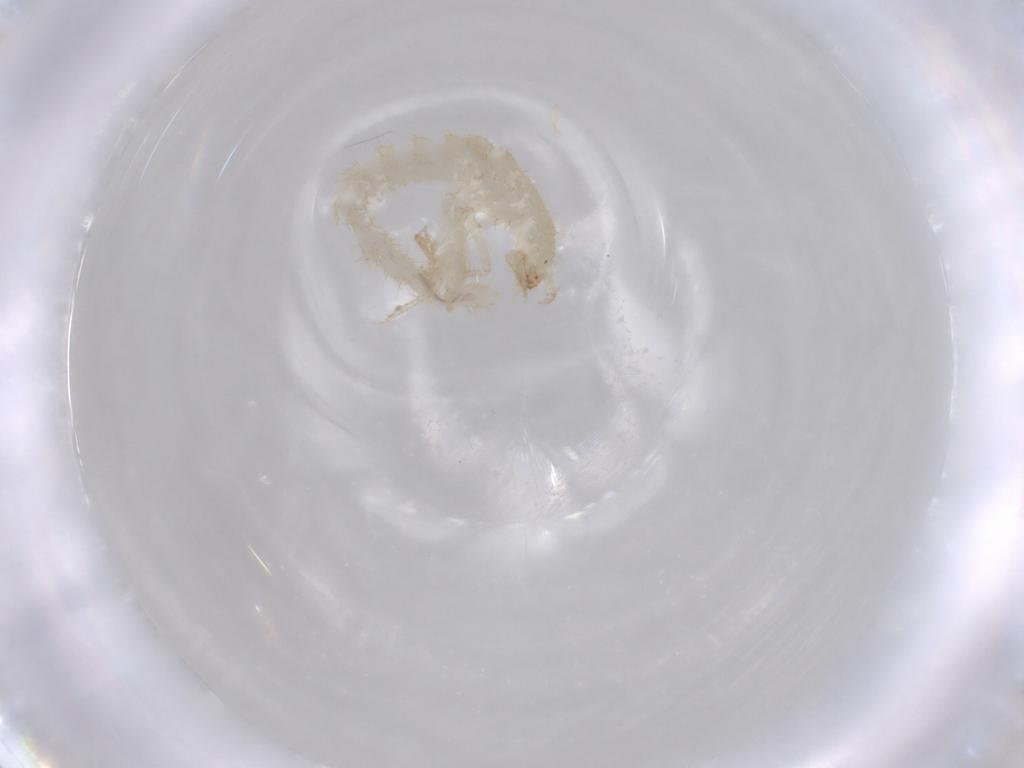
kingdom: Animalia
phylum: Arthropoda
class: Insecta
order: Coleoptera
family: Staphylinidae
